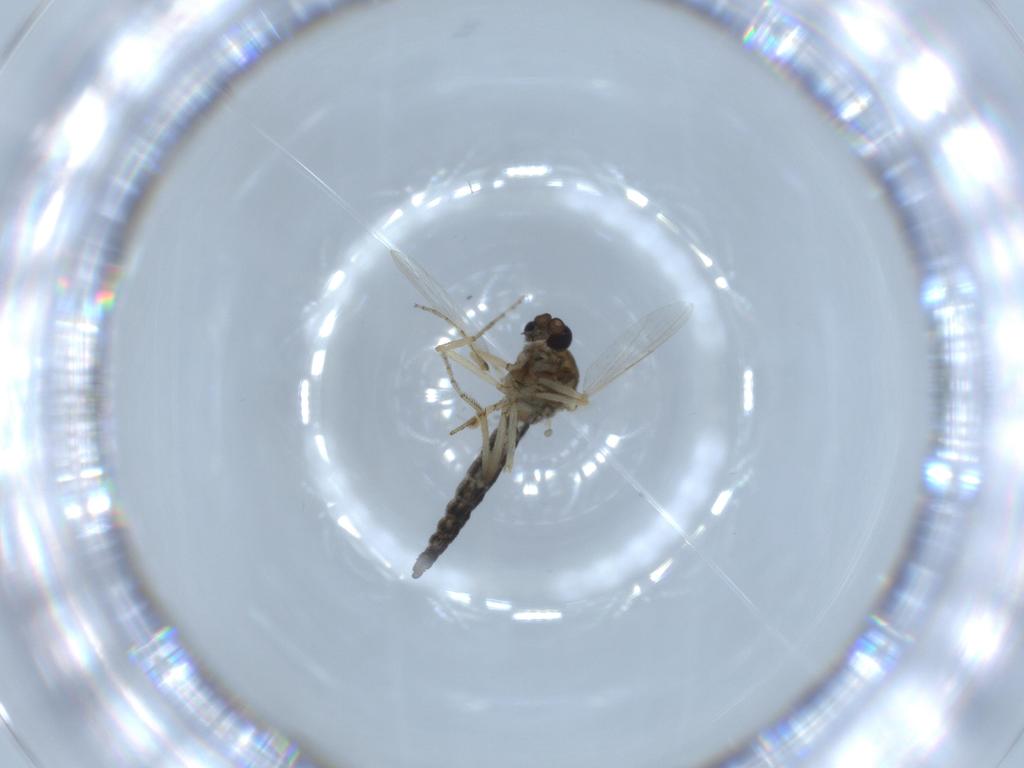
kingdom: Animalia
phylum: Arthropoda
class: Insecta
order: Diptera
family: Ceratopogonidae
